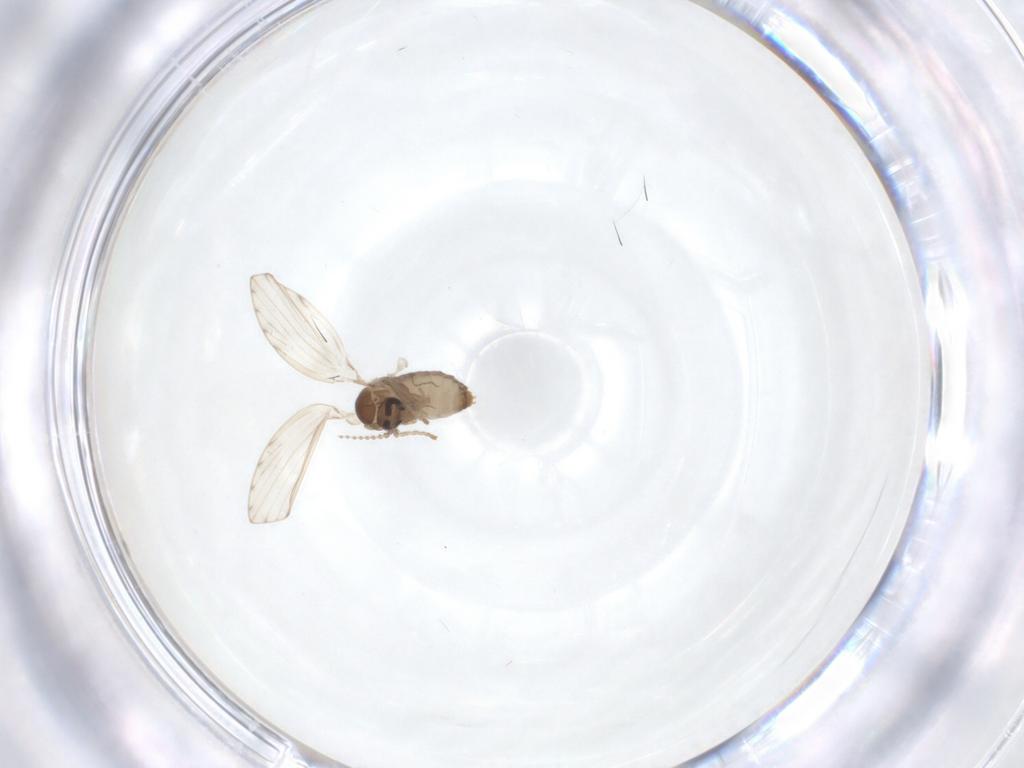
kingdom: Animalia
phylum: Arthropoda
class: Insecta
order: Diptera
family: Psychodidae
